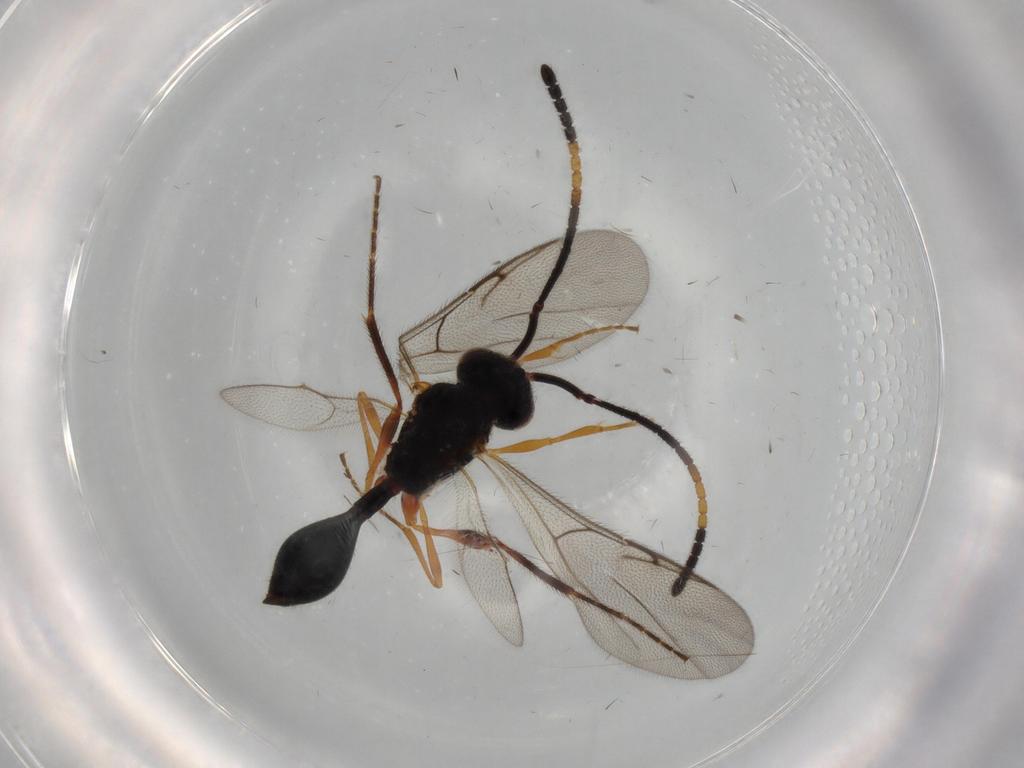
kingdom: Animalia
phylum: Arthropoda
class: Insecta
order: Hymenoptera
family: Diapriidae
